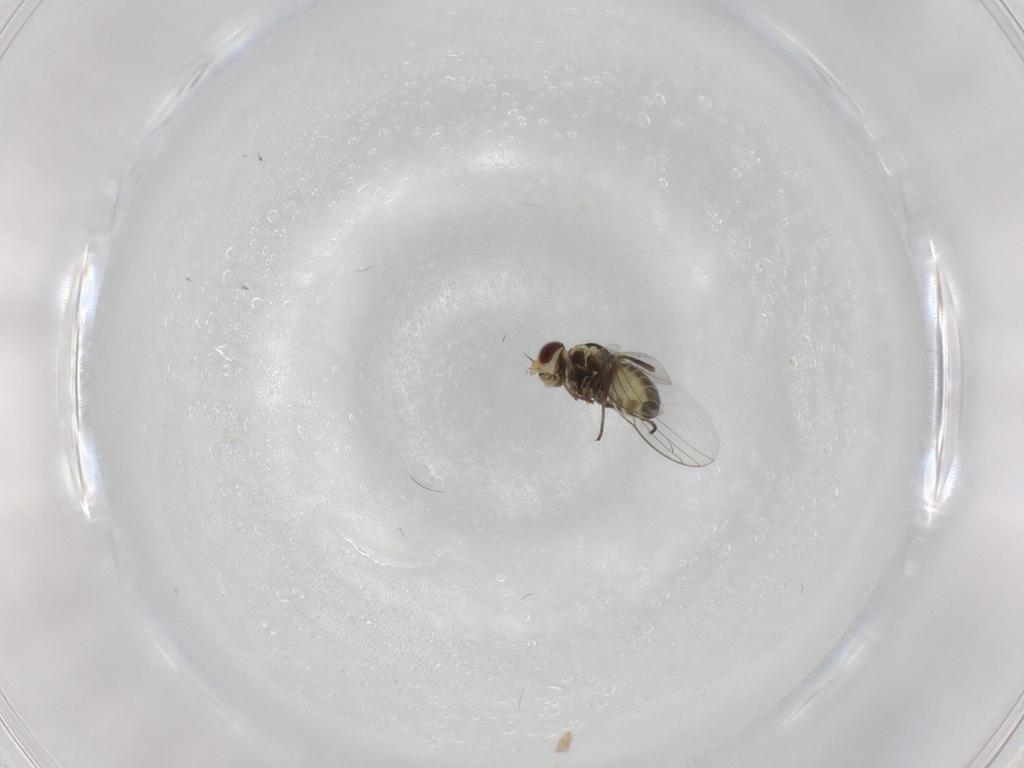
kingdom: Animalia
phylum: Arthropoda
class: Insecta
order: Diptera
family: Agromyzidae
